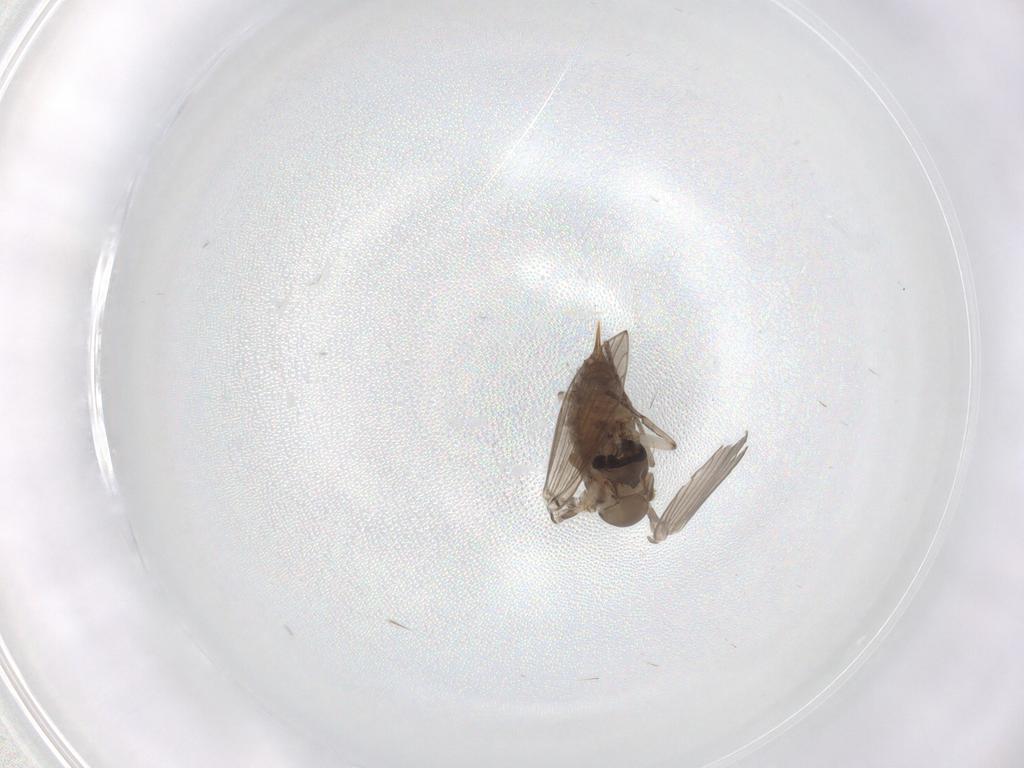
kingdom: Animalia
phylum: Arthropoda
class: Insecta
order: Diptera
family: Psychodidae
